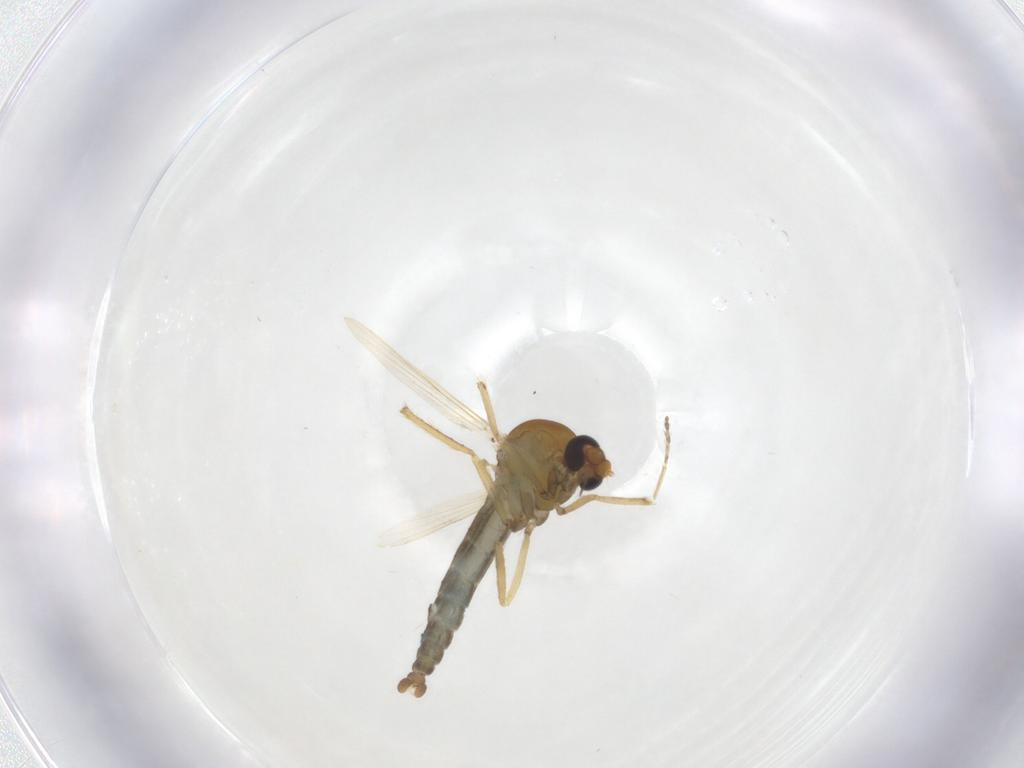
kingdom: Animalia
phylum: Arthropoda
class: Insecta
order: Diptera
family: Ceratopogonidae
